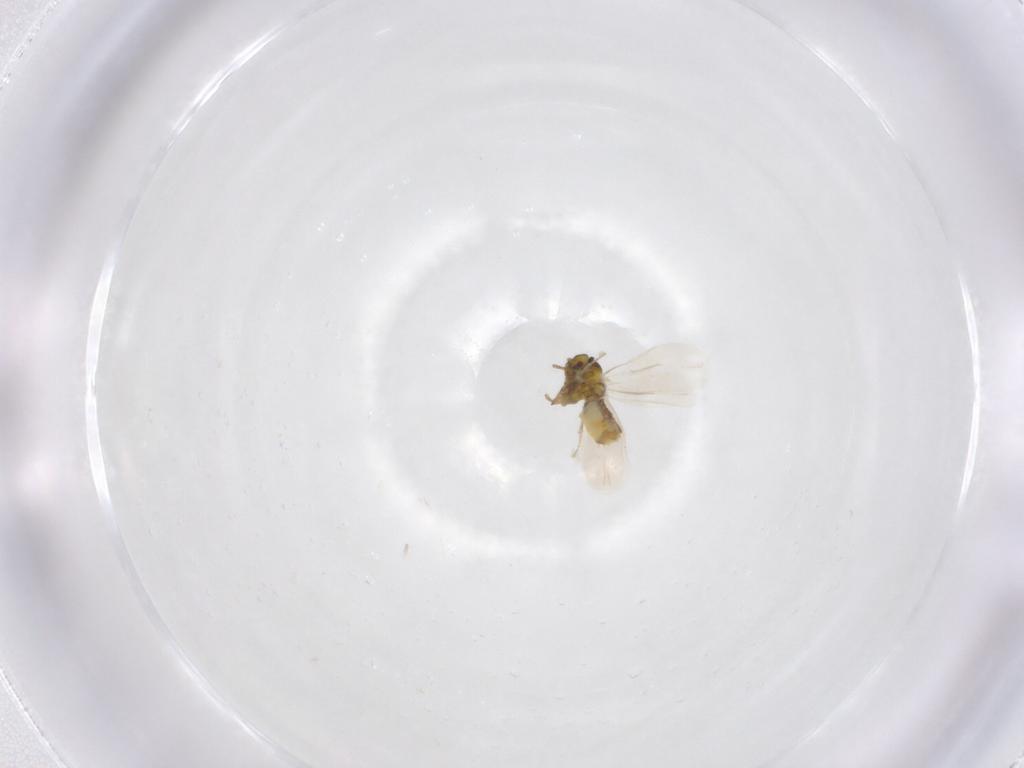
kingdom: Animalia
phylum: Arthropoda
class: Insecta
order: Hemiptera
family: Aleyrodidae
